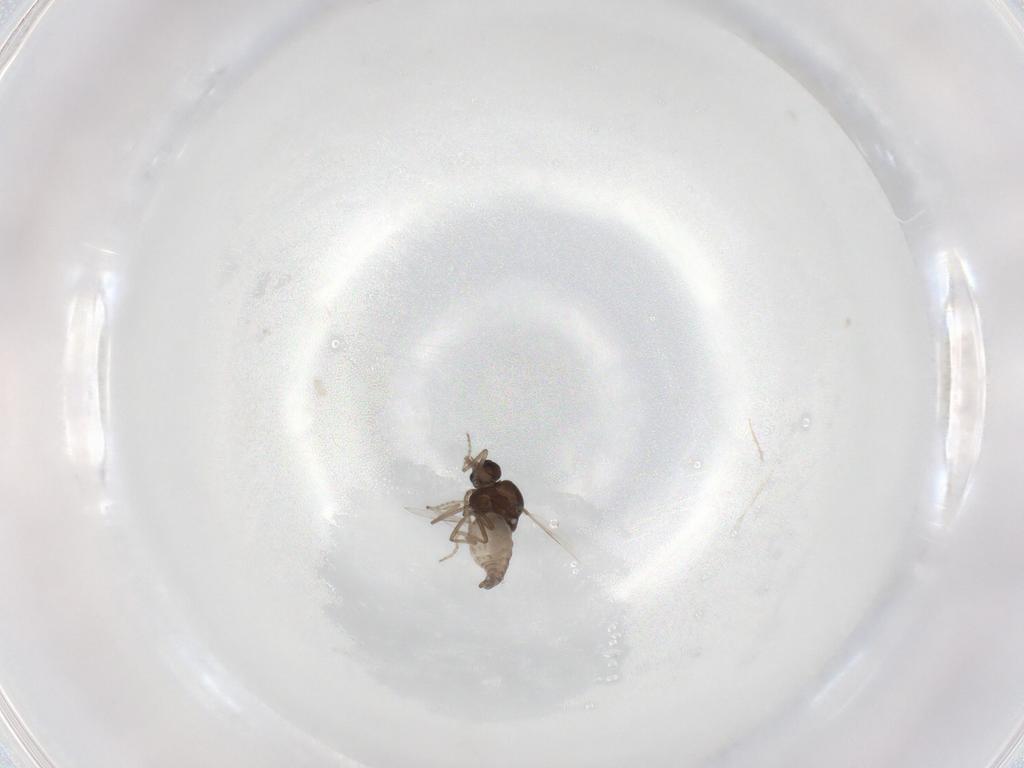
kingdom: Animalia
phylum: Arthropoda
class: Insecta
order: Diptera
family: Ceratopogonidae
